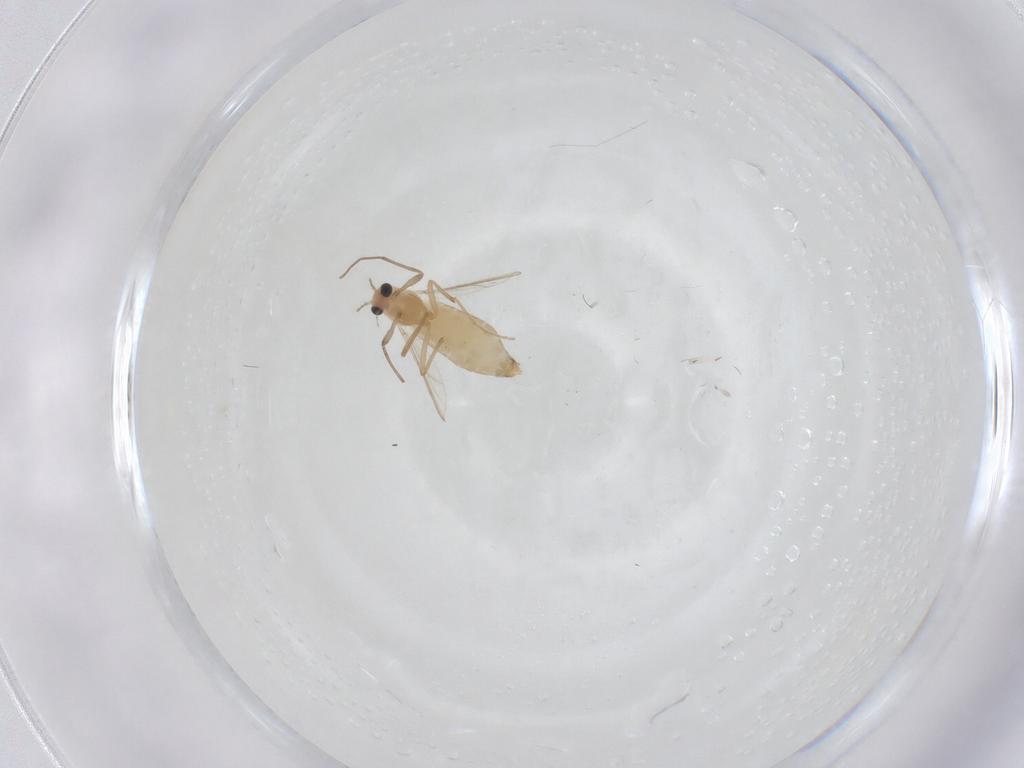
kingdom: Animalia
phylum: Arthropoda
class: Insecta
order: Diptera
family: Chironomidae
